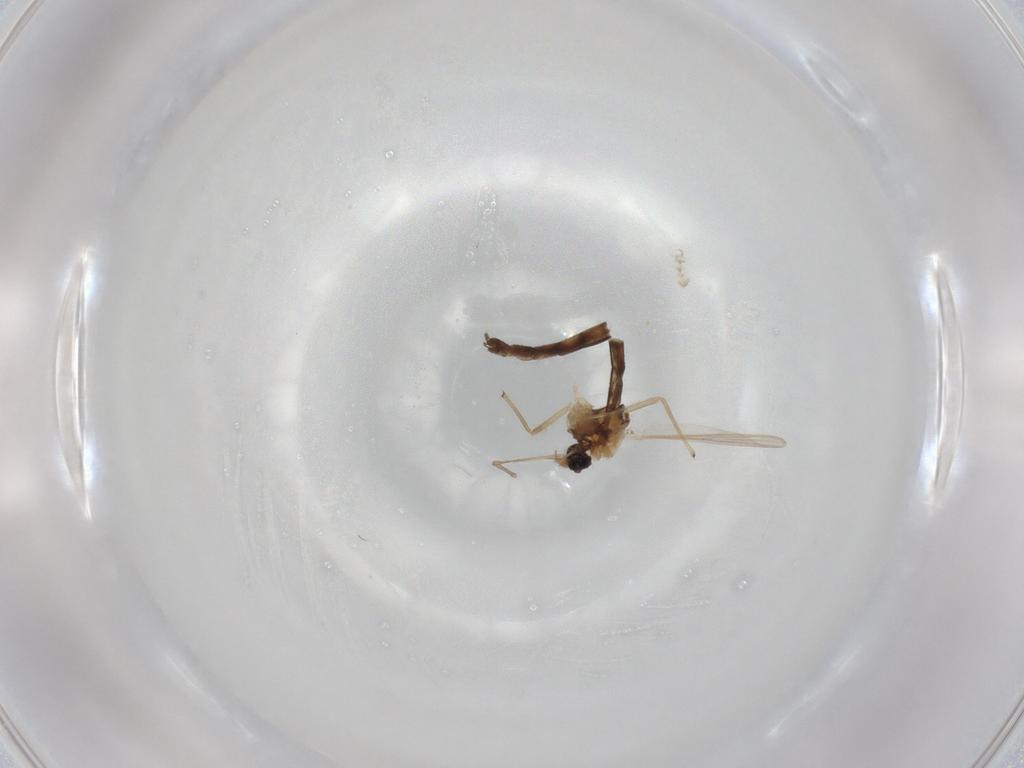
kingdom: Animalia
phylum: Arthropoda
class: Insecta
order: Diptera
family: Chironomidae
